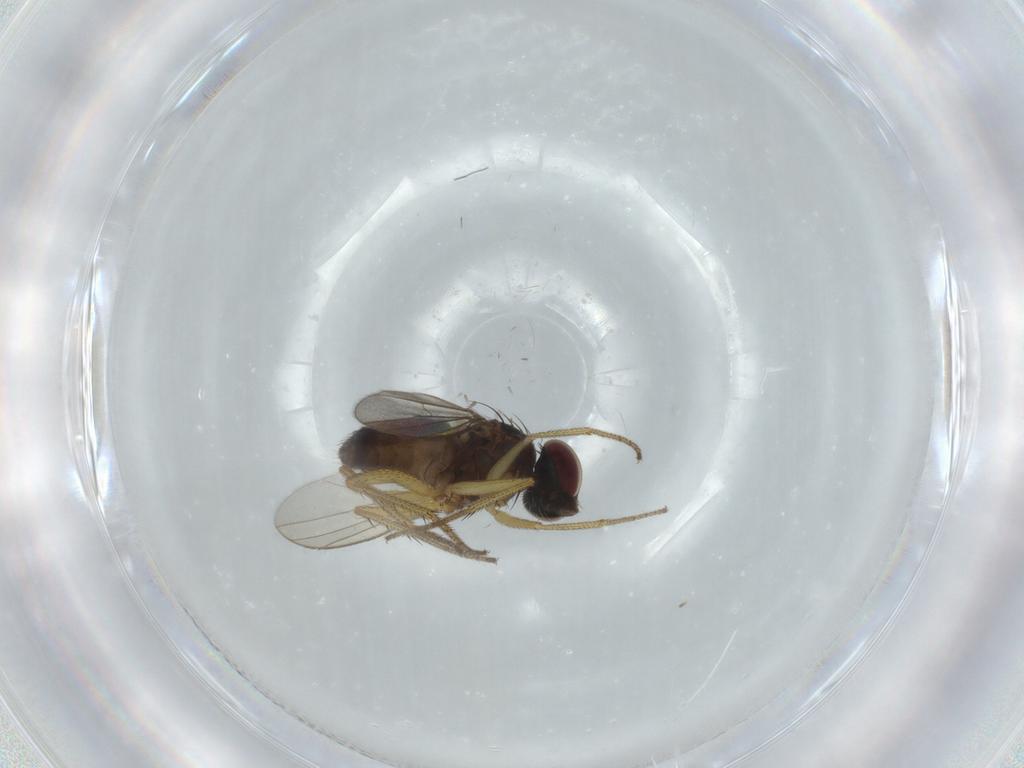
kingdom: Animalia
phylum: Arthropoda
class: Insecta
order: Diptera
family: Dolichopodidae
